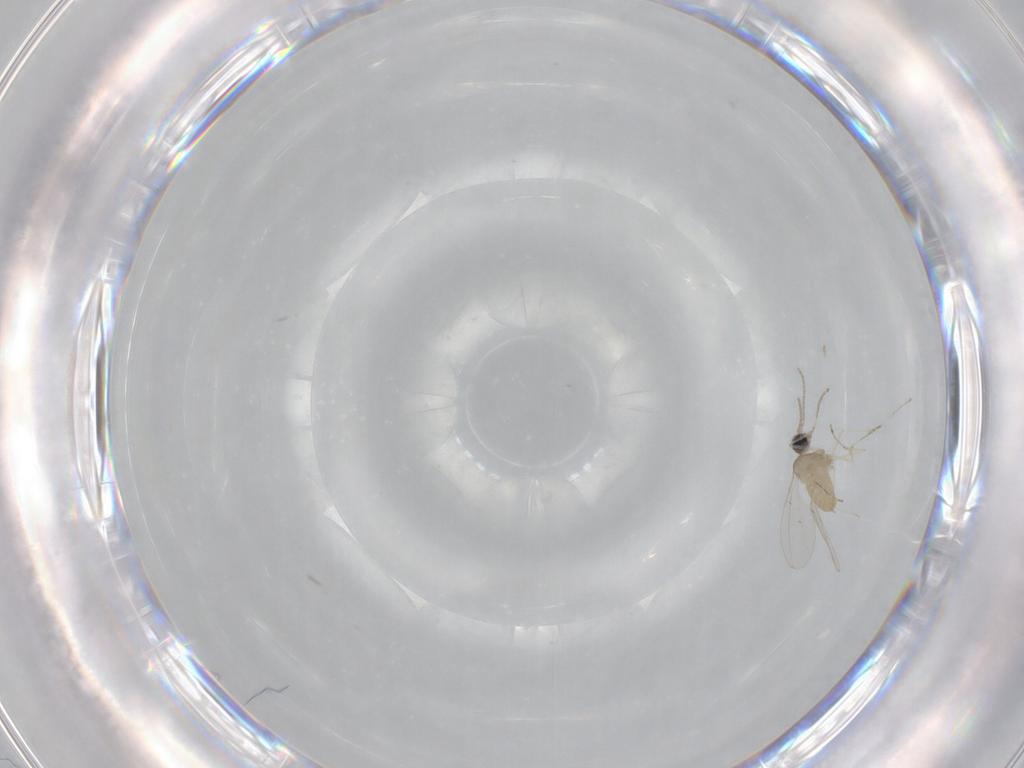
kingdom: Animalia
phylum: Arthropoda
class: Insecta
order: Diptera
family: Cecidomyiidae
